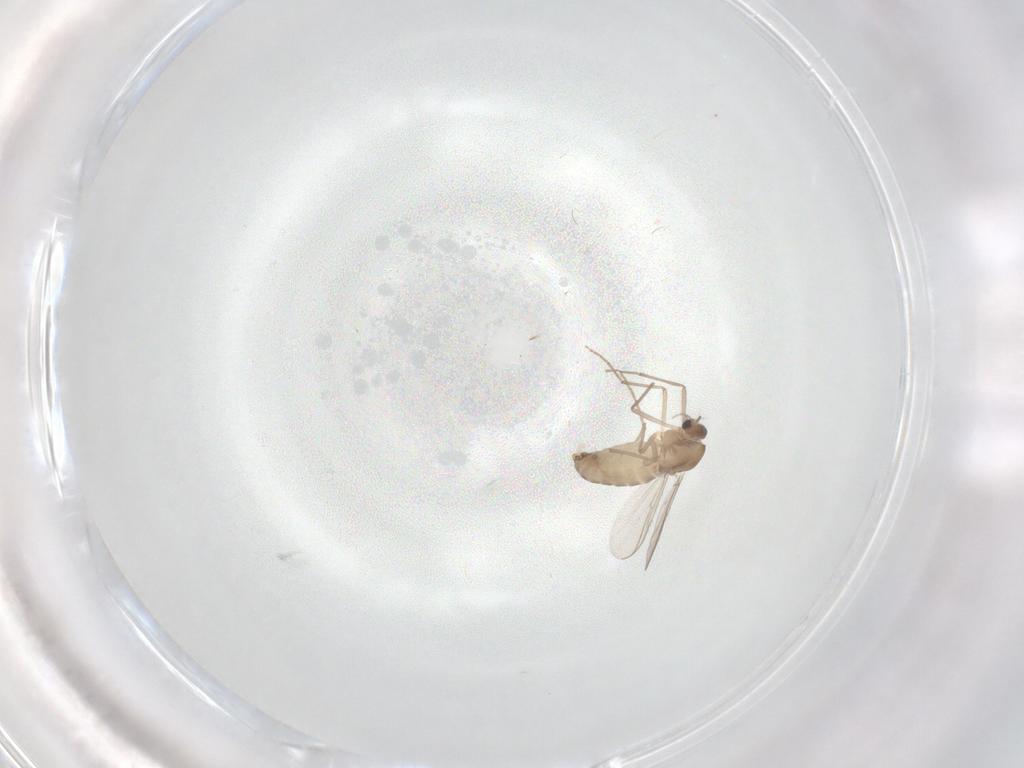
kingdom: Animalia
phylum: Arthropoda
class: Insecta
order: Diptera
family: Chironomidae
